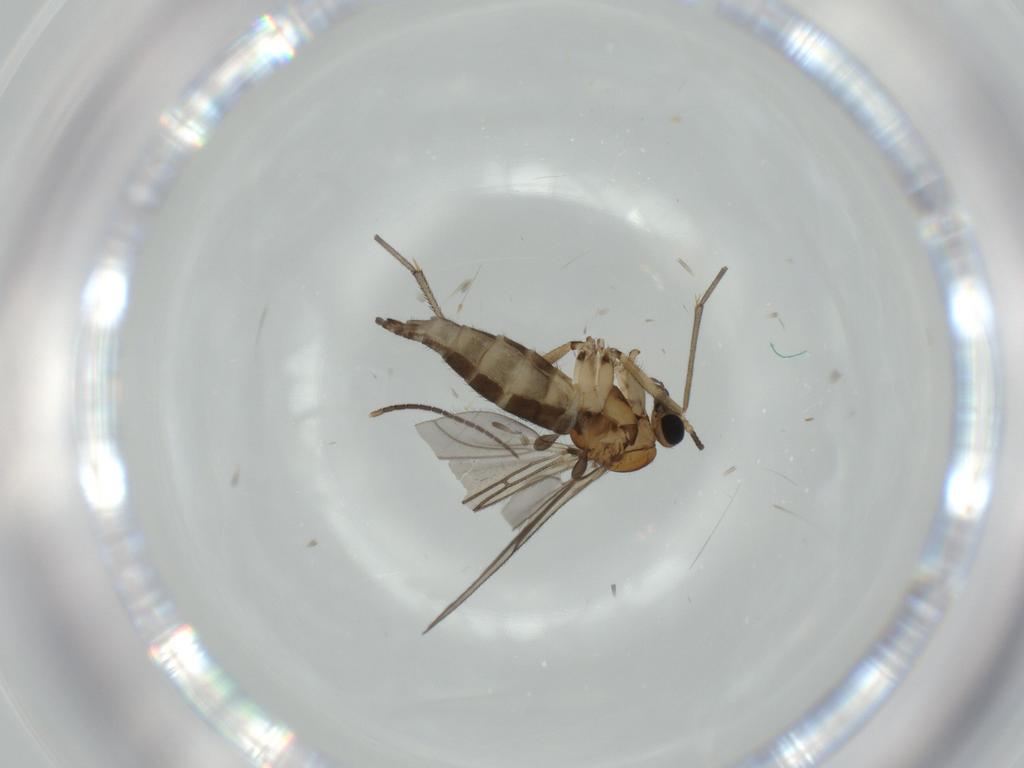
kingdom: Animalia
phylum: Arthropoda
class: Insecta
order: Diptera
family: Sciaridae
